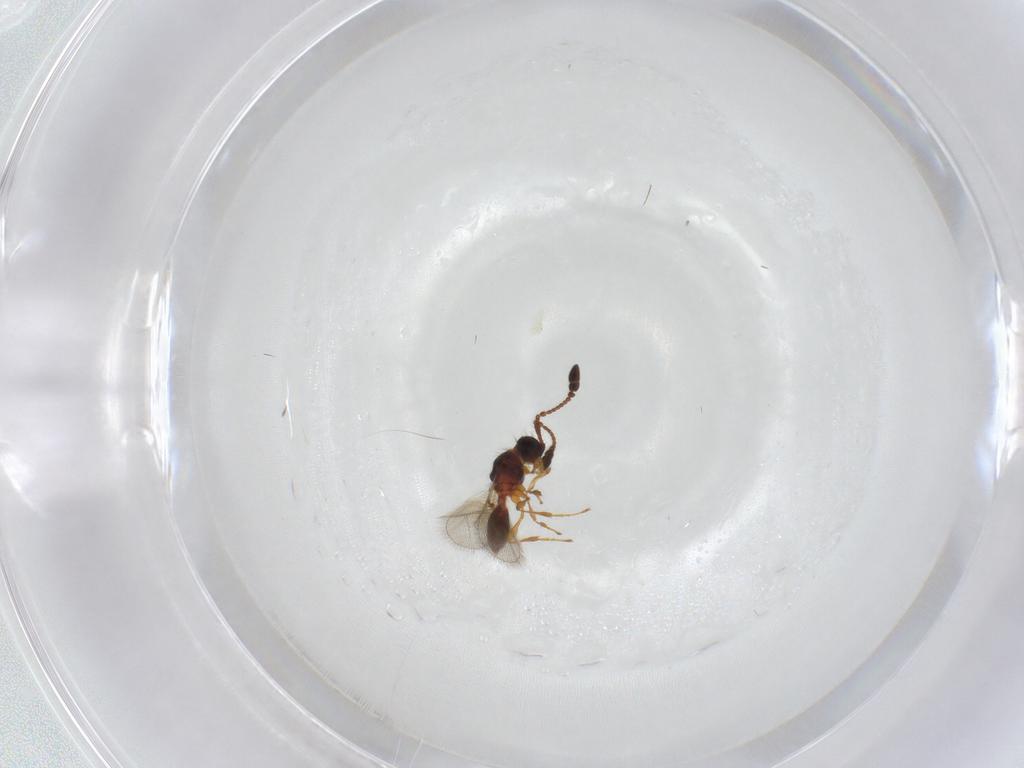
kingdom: Animalia
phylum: Arthropoda
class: Insecta
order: Hymenoptera
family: Diapriidae
